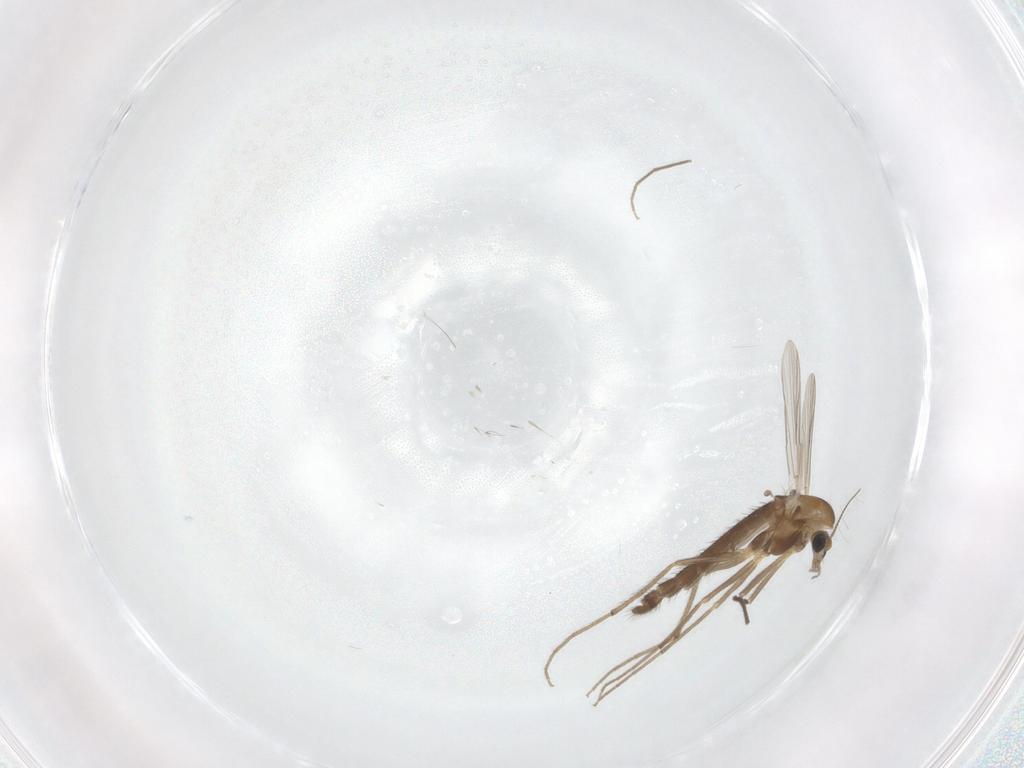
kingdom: Animalia
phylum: Arthropoda
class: Insecta
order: Diptera
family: Chironomidae
